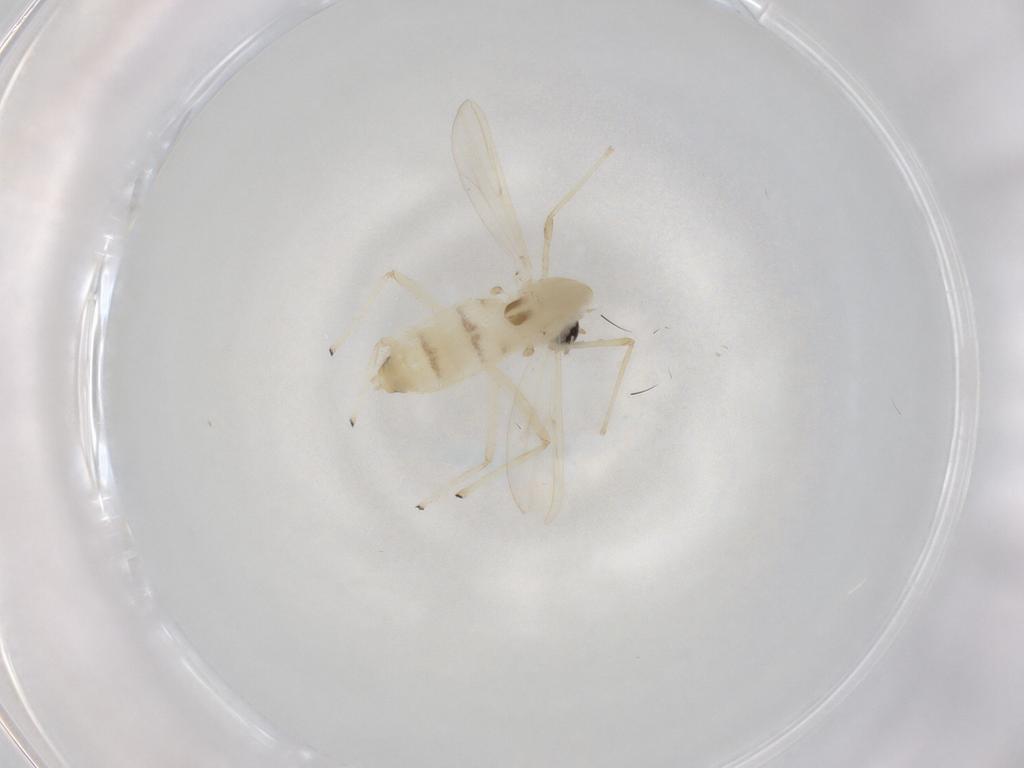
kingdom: Animalia
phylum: Arthropoda
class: Insecta
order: Diptera
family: Chironomidae
